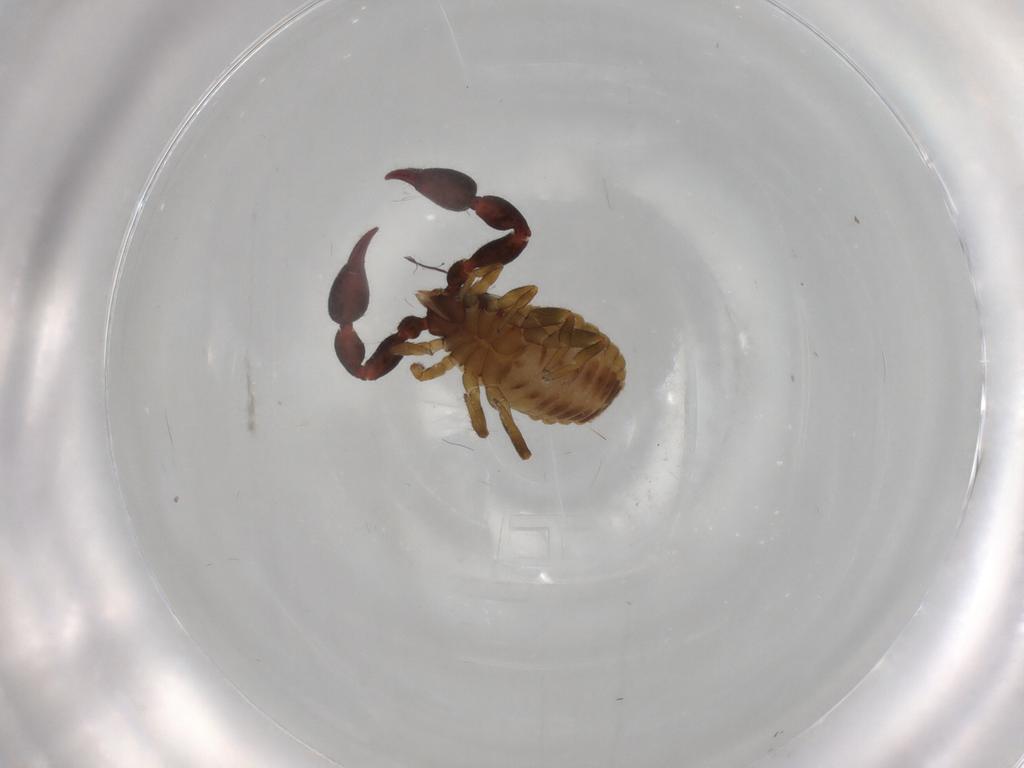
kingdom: Animalia
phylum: Arthropoda
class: Arachnida
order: Pseudoscorpiones
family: Chernetidae
